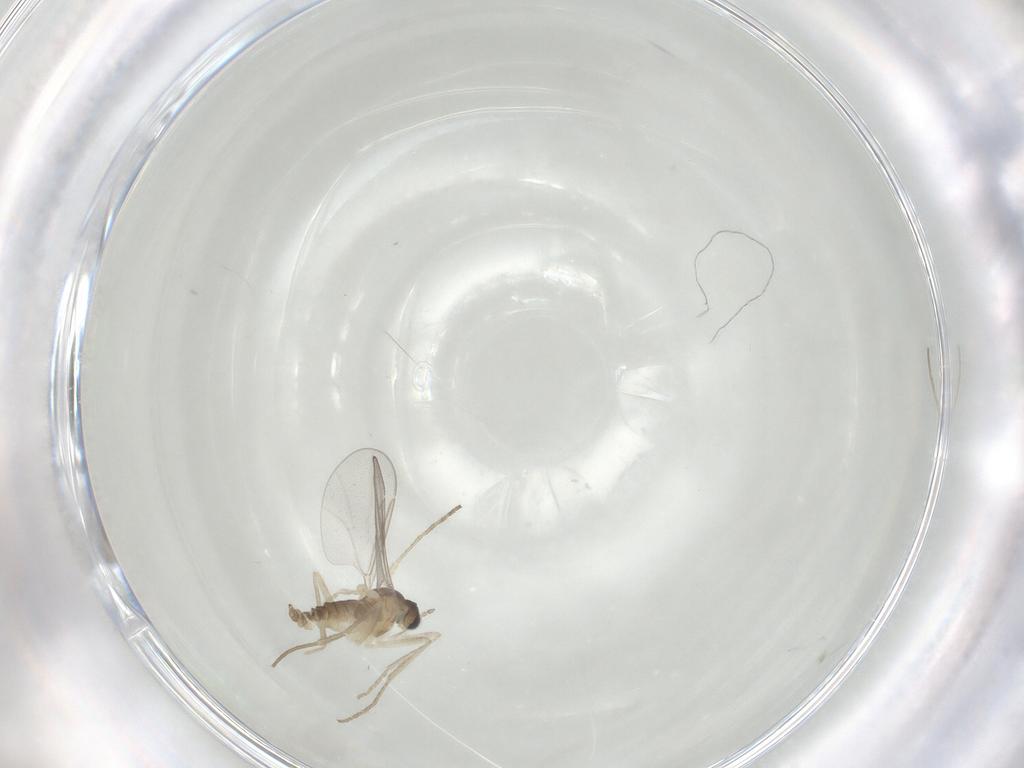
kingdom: Animalia
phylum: Arthropoda
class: Insecta
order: Diptera
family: Cecidomyiidae
